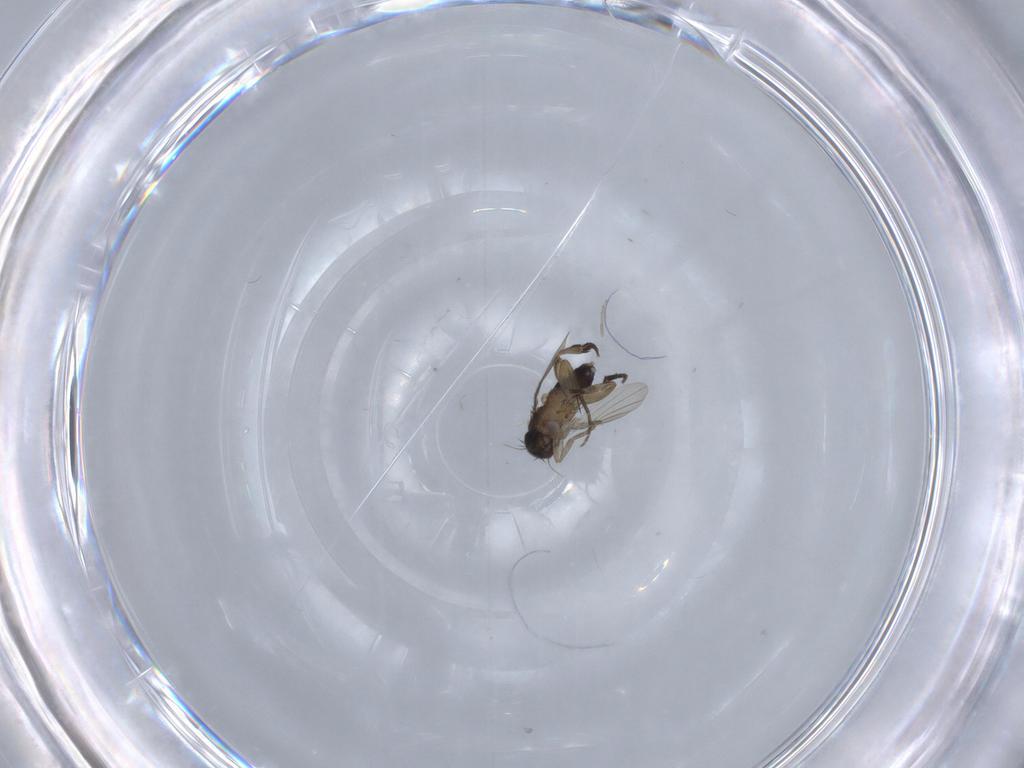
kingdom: Animalia
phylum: Arthropoda
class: Insecta
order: Diptera
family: Phoridae
